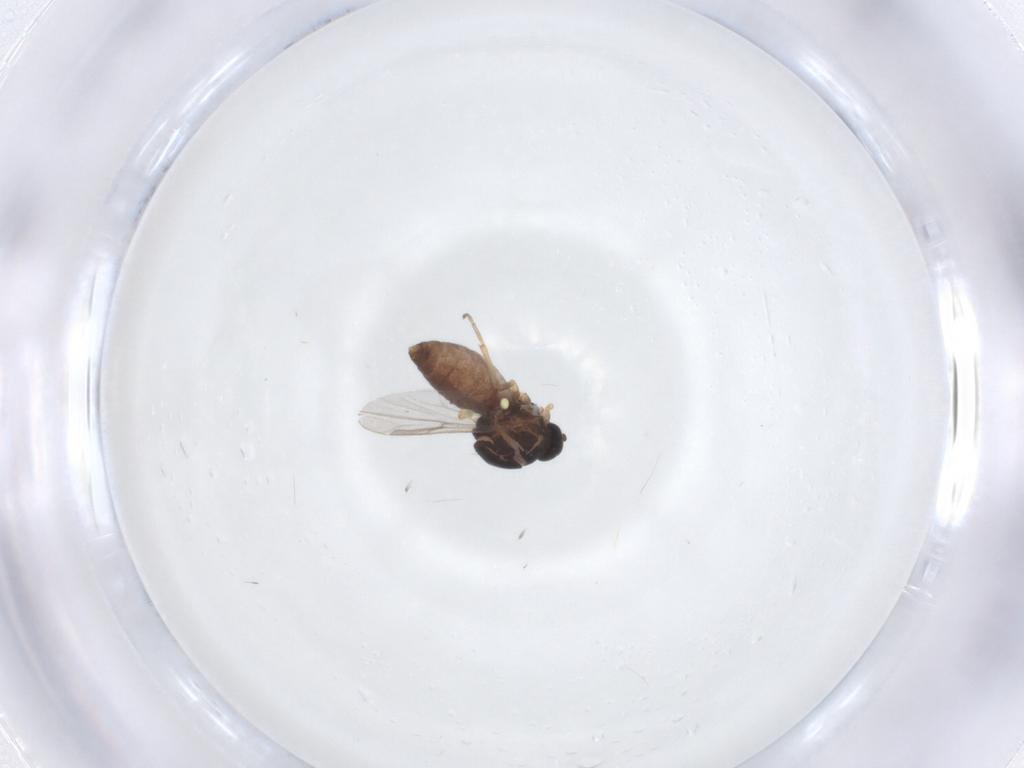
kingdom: Animalia
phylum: Arthropoda
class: Insecta
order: Diptera
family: Ceratopogonidae
